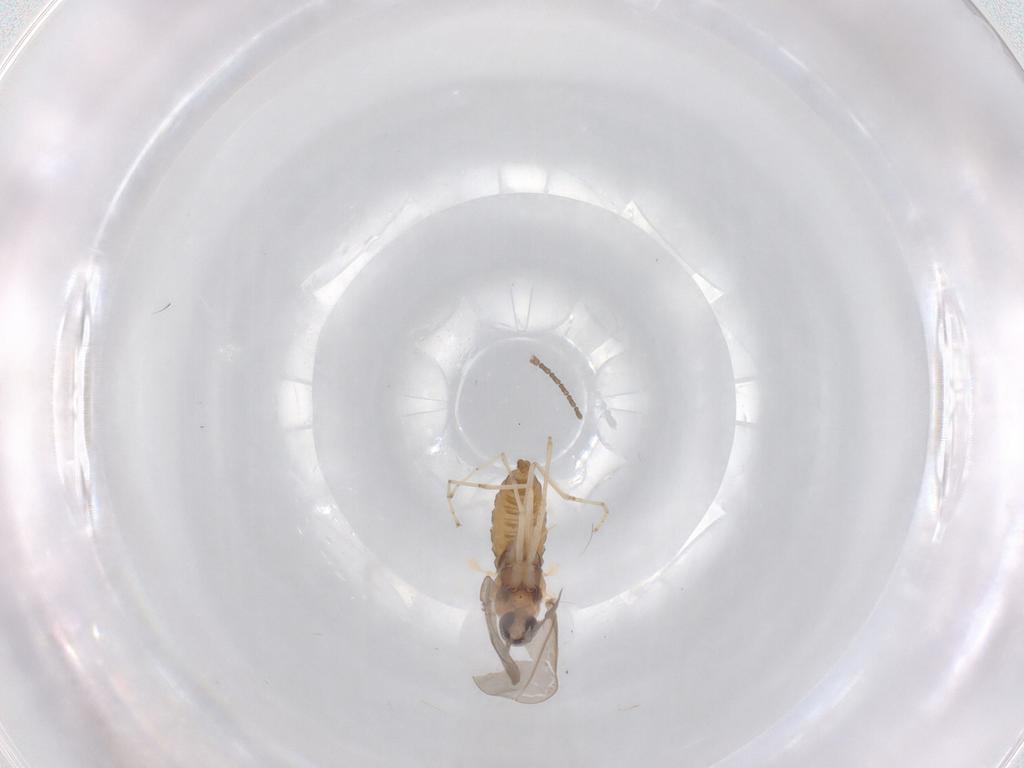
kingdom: Animalia
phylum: Arthropoda
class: Insecta
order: Diptera
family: Cecidomyiidae
